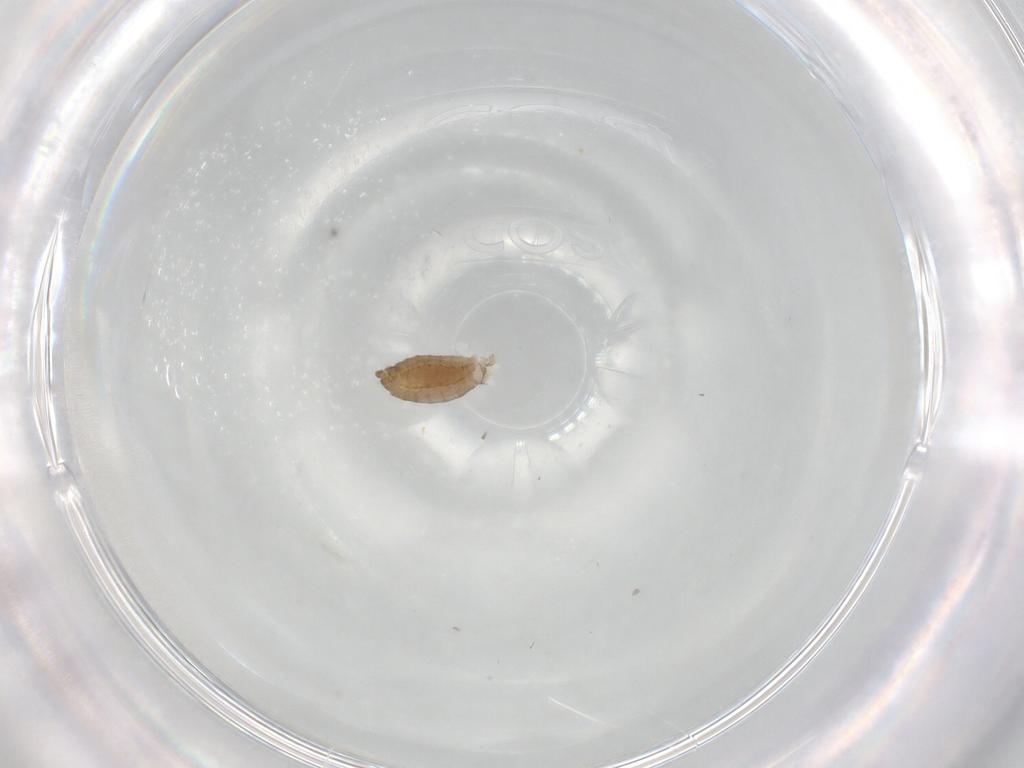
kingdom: Animalia
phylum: Arthropoda
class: Insecta
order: Diptera
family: Chironomidae
